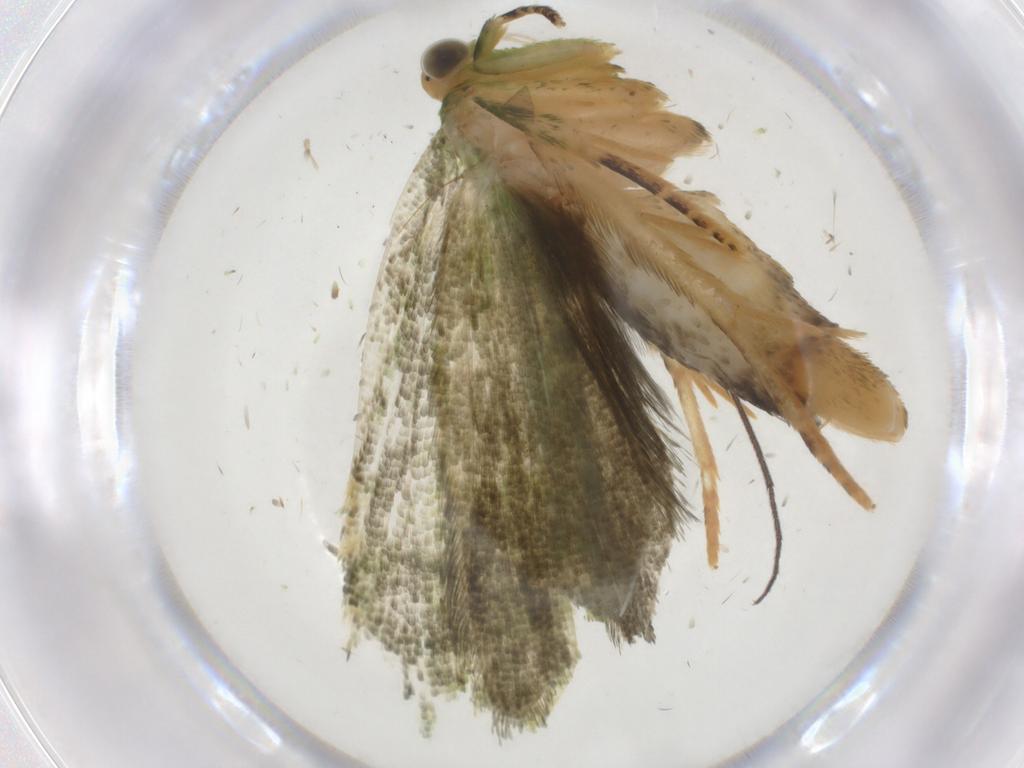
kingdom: Animalia
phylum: Arthropoda
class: Insecta
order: Lepidoptera
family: Tortricidae
